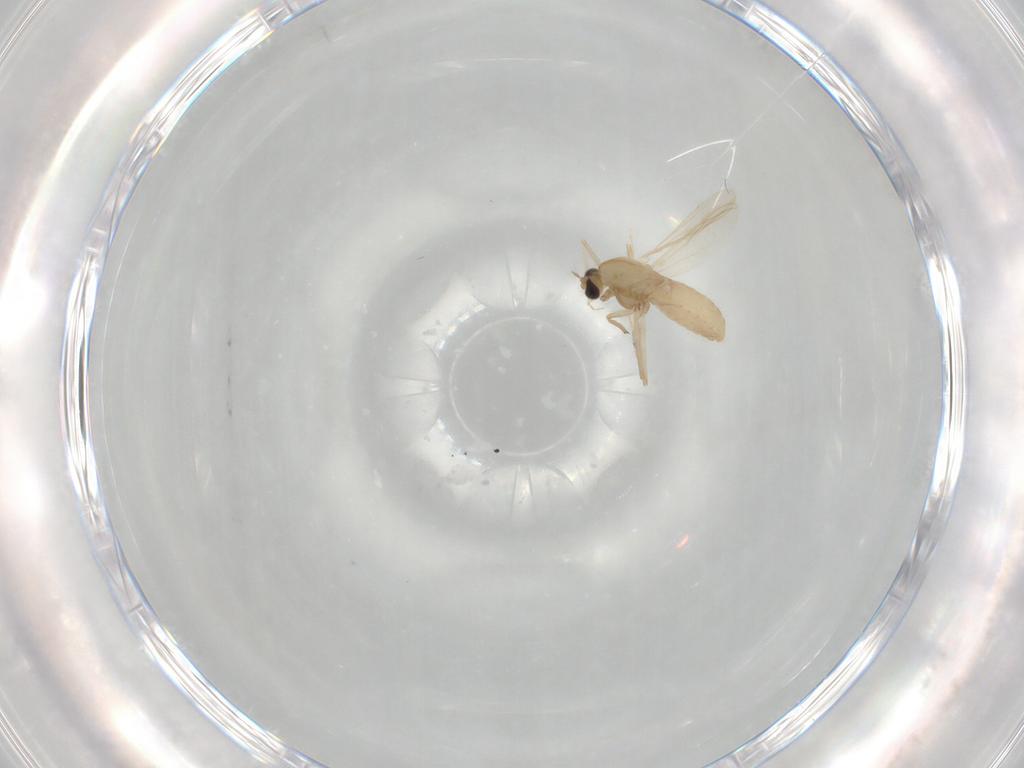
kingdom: Animalia
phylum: Arthropoda
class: Insecta
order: Diptera
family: Chironomidae
